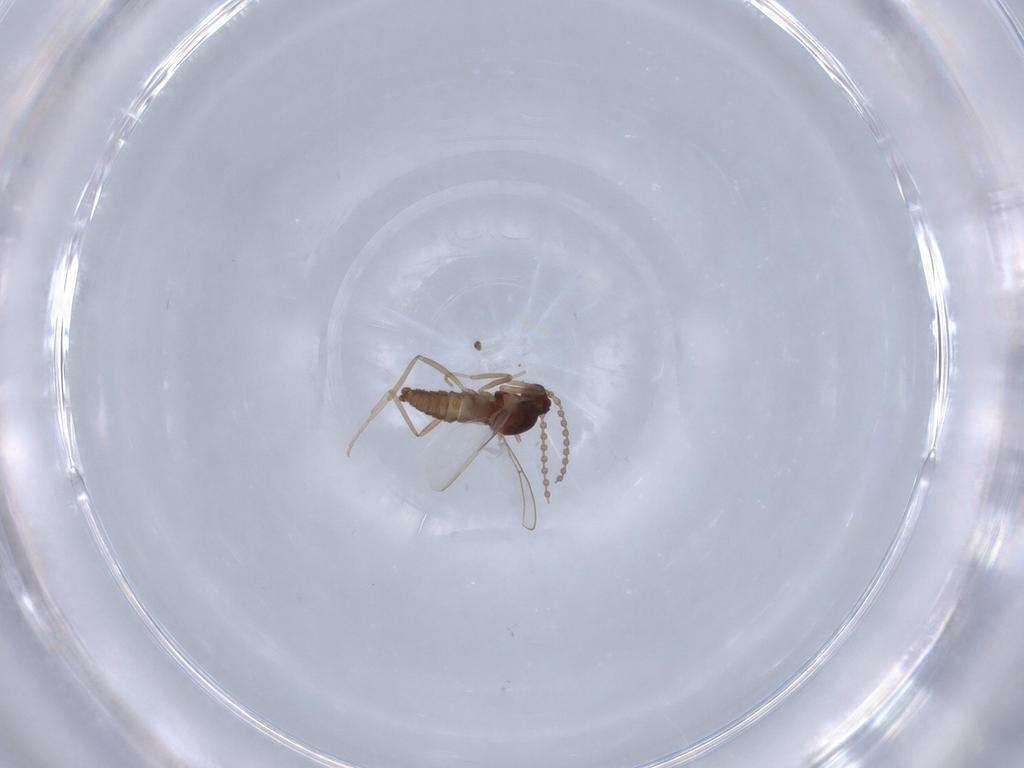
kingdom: Animalia
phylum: Arthropoda
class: Insecta
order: Diptera
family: Cecidomyiidae
